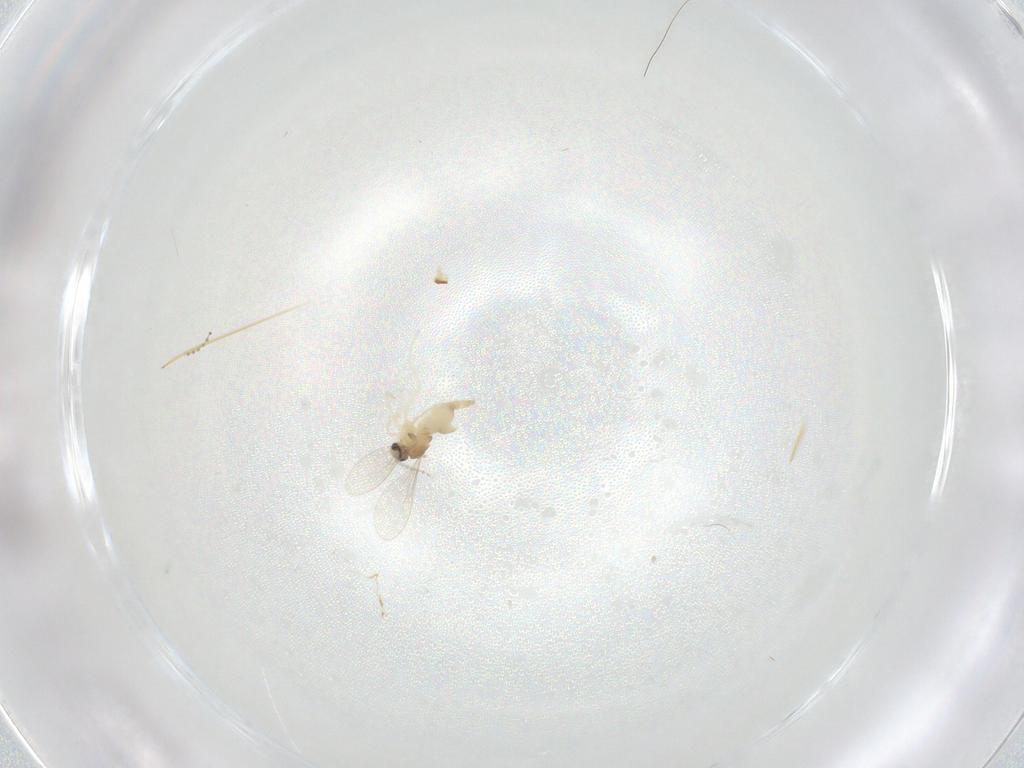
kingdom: Animalia
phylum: Arthropoda
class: Insecta
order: Diptera
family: Cecidomyiidae
